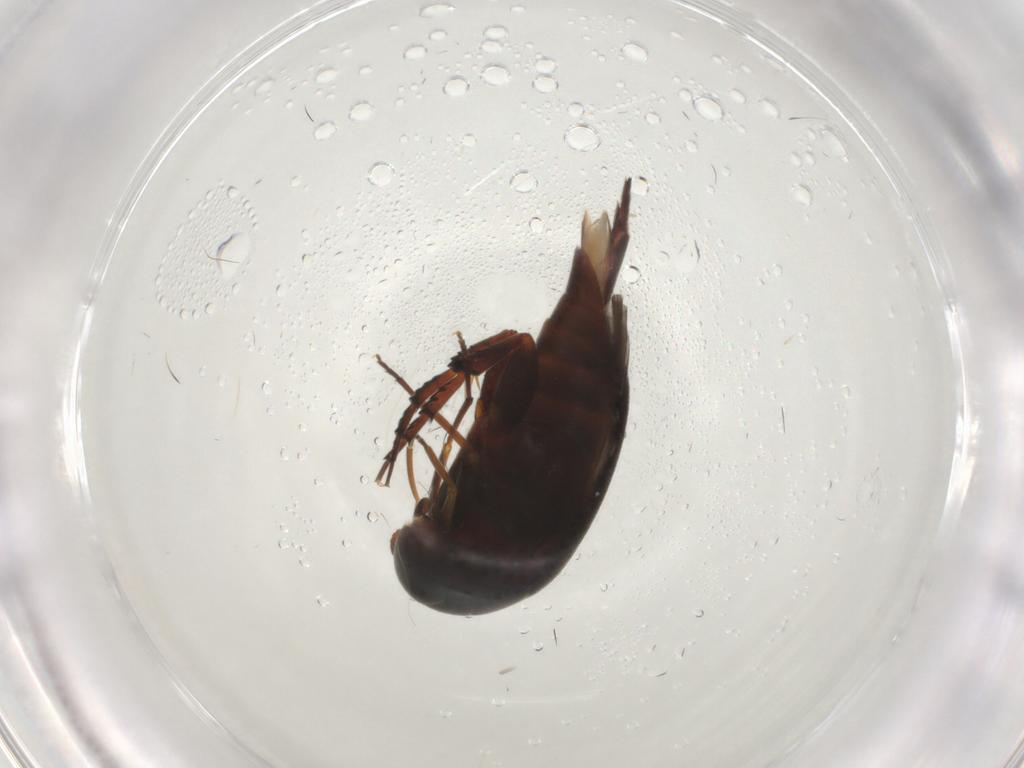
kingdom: Animalia
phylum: Arthropoda
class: Insecta
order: Coleoptera
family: Mordellidae
